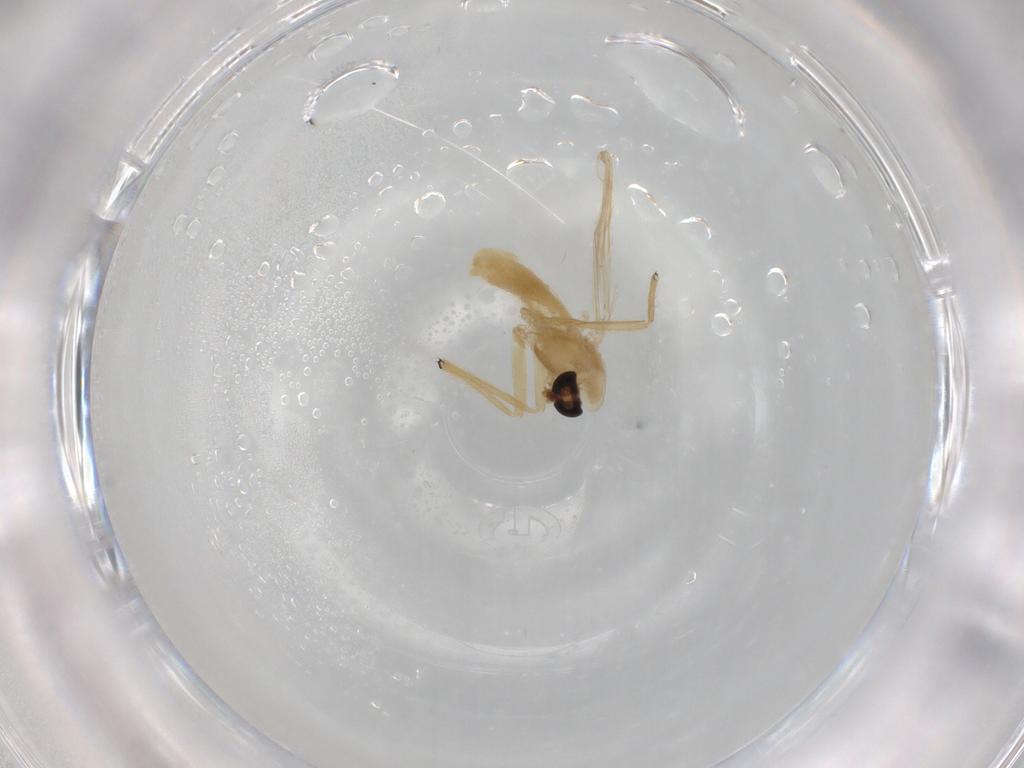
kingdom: Animalia
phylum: Arthropoda
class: Insecta
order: Diptera
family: Chironomidae
